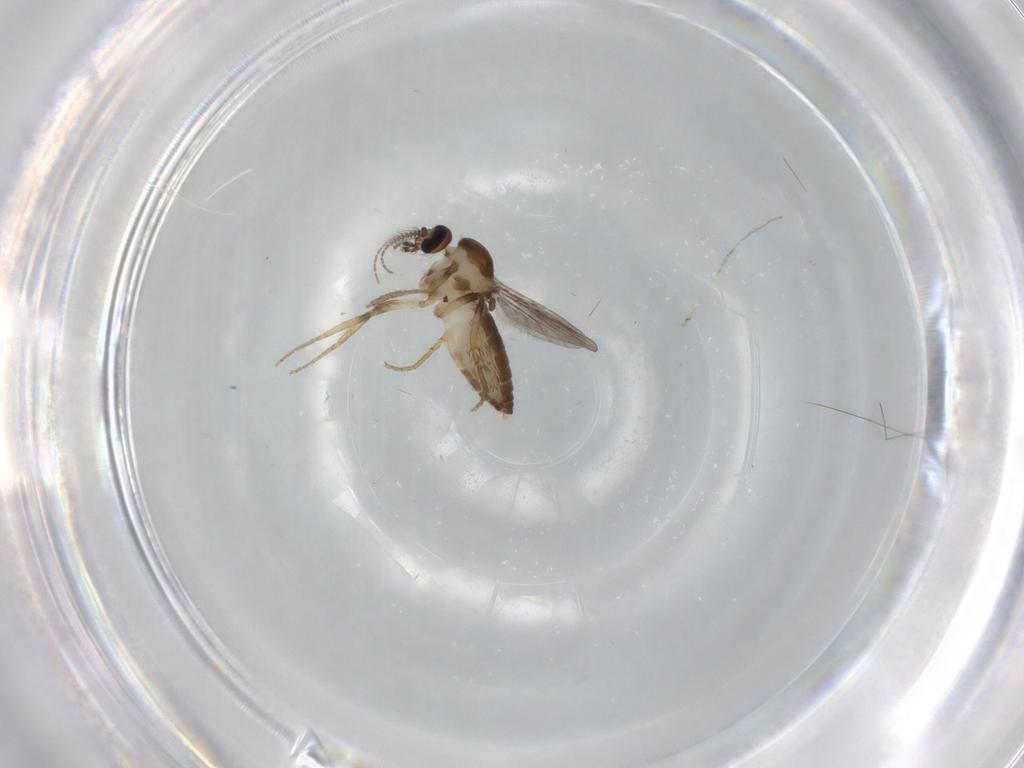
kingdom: Animalia
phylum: Arthropoda
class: Insecta
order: Diptera
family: Ceratopogonidae
